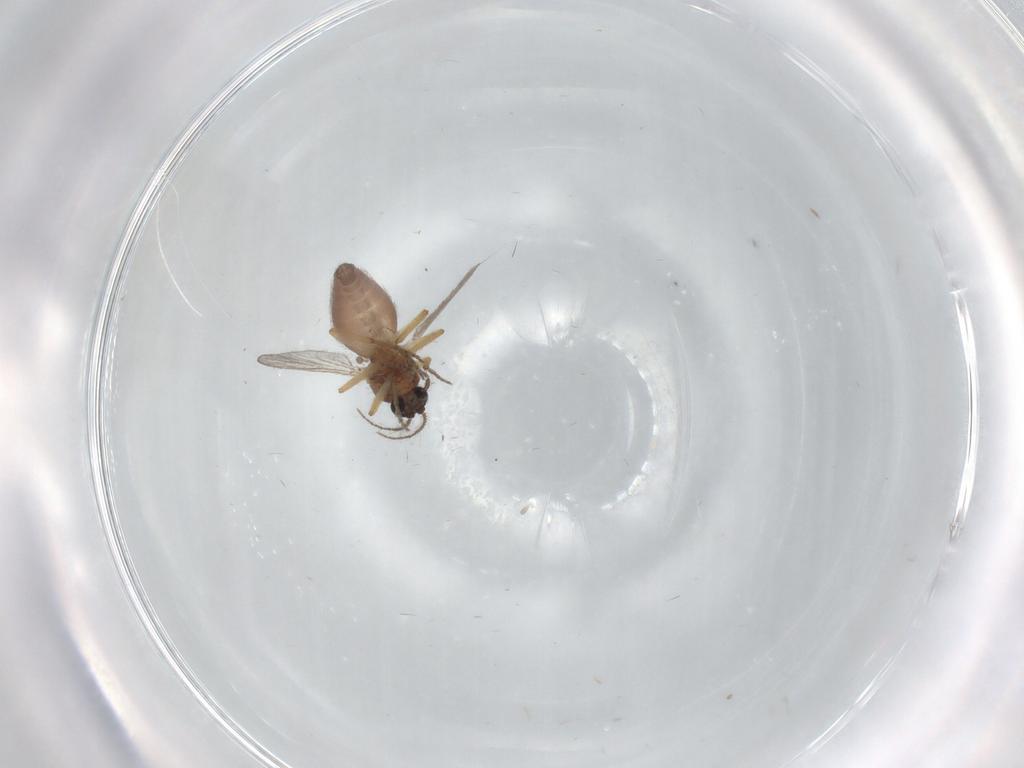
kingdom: Animalia
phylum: Arthropoda
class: Insecta
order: Diptera
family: Ceratopogonidae
